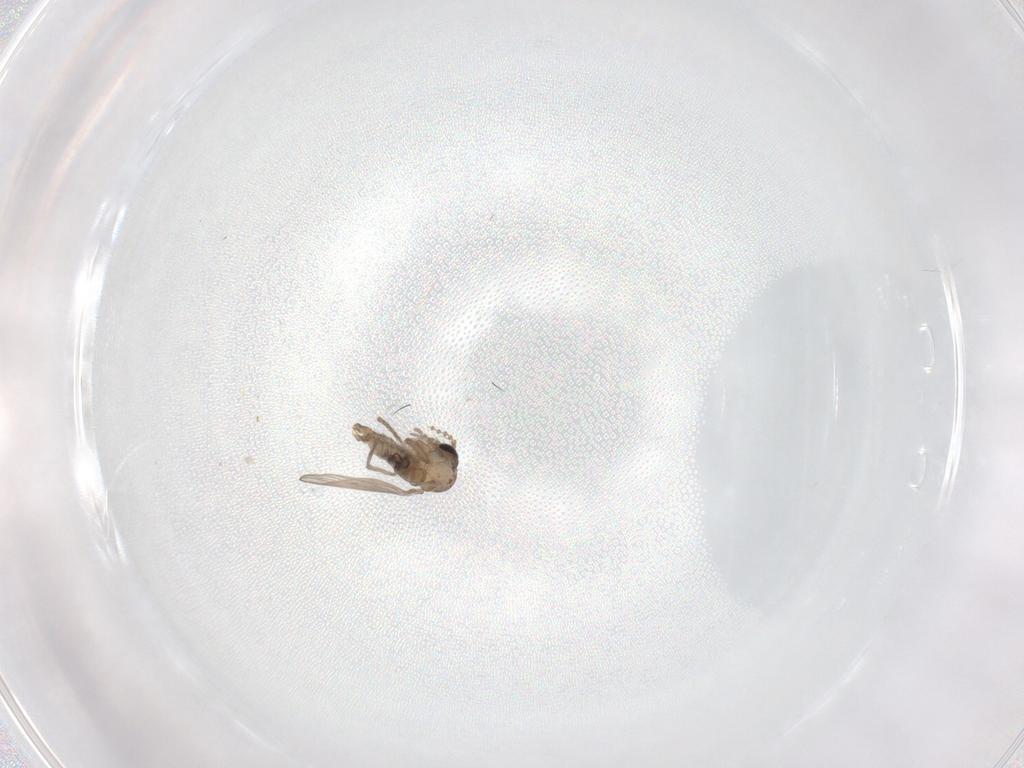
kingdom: Animalia
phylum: Arthropoda
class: Insecta
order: Diptera
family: Psychodidae
